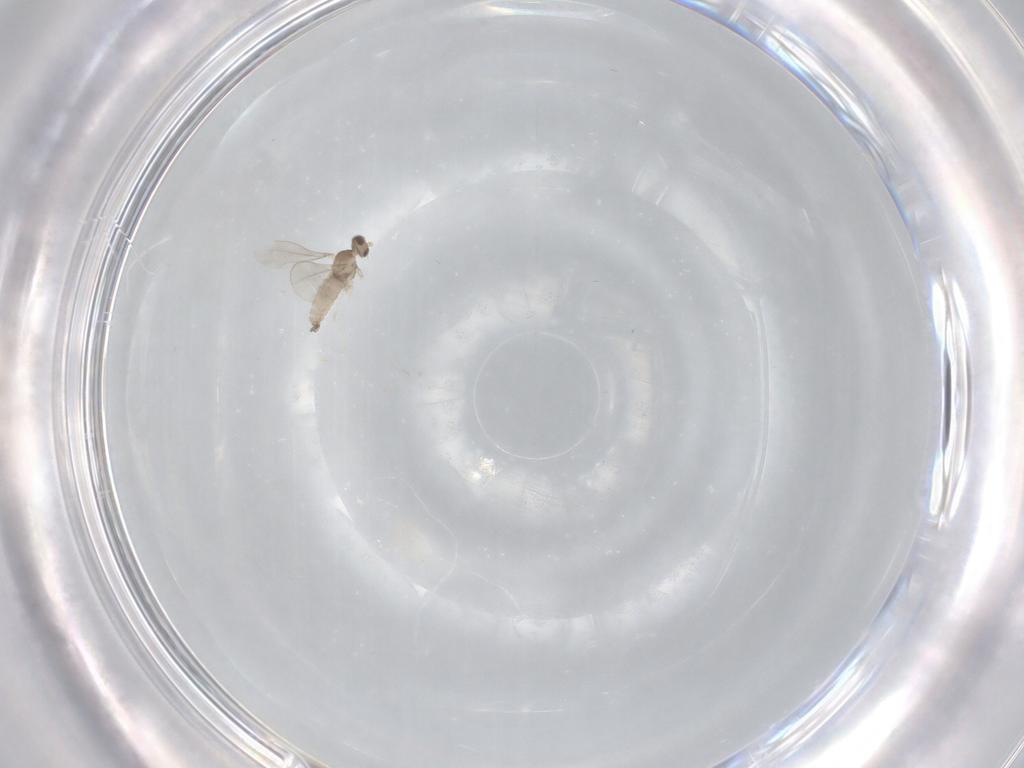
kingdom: Animalia
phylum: Arthropoda
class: Insecta
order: Diptera
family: Cecidomyiidae
